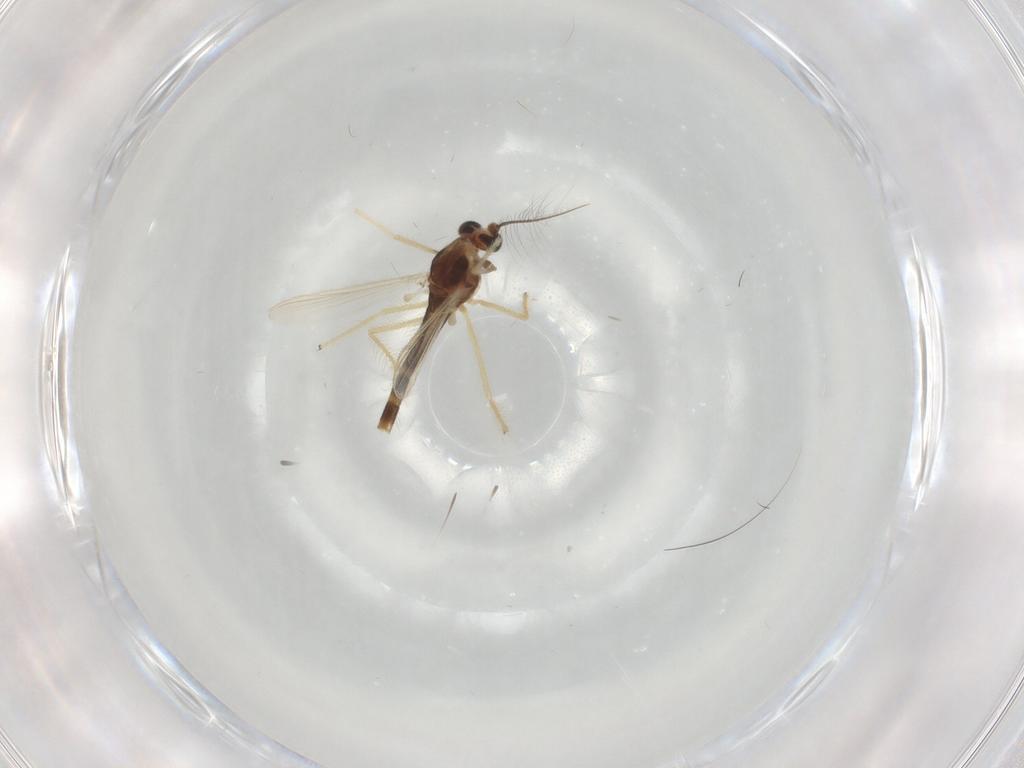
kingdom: Animalia
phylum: Arthropoda
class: Insecta
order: Diptera
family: Chironomidae
